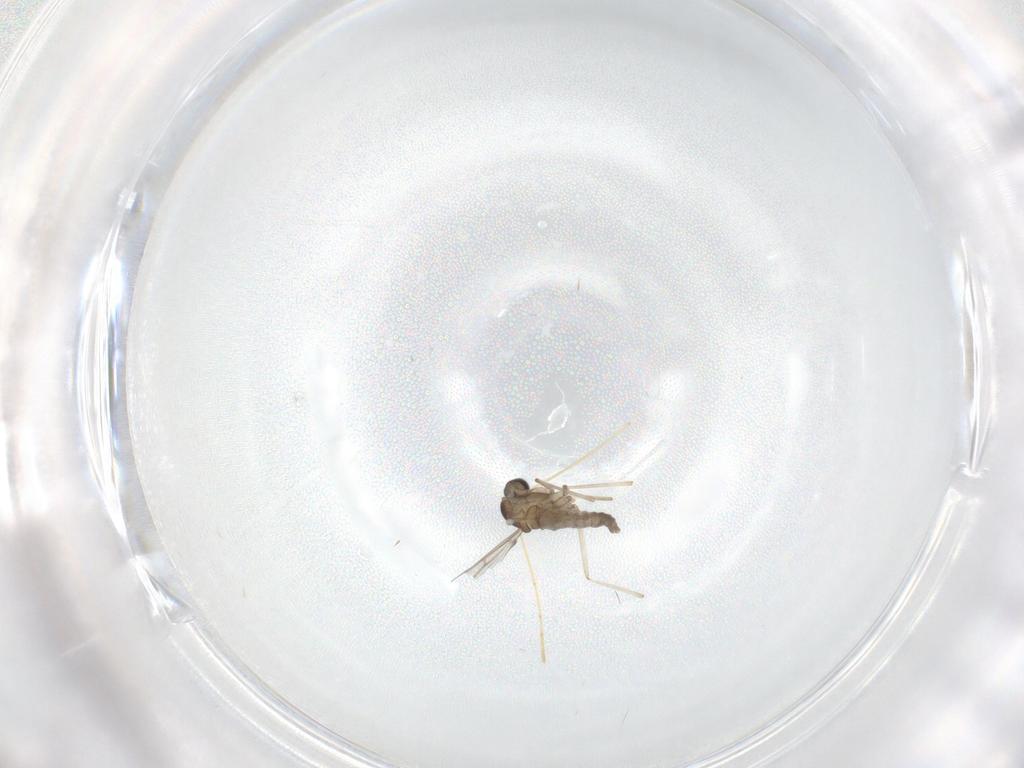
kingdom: Animalia
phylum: Arthropoda
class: Insecta
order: Diptera
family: Cecidomyiidae
